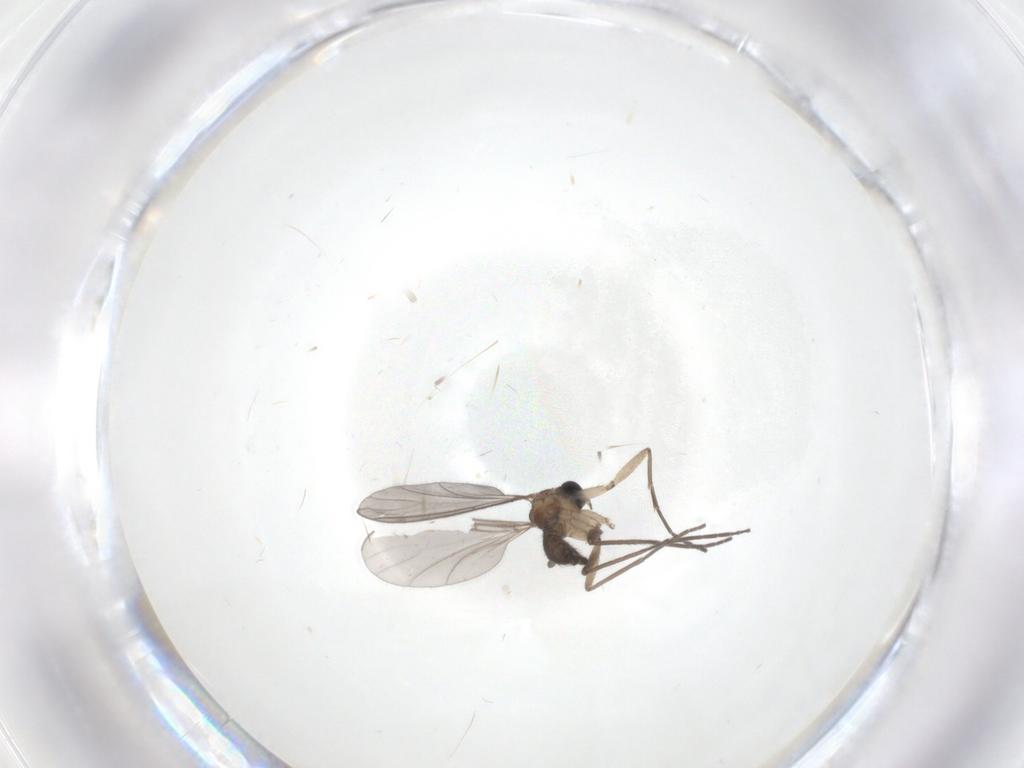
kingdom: Animalia
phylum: Arthropoda
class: Insecta
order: Diptera
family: Sciaridae
